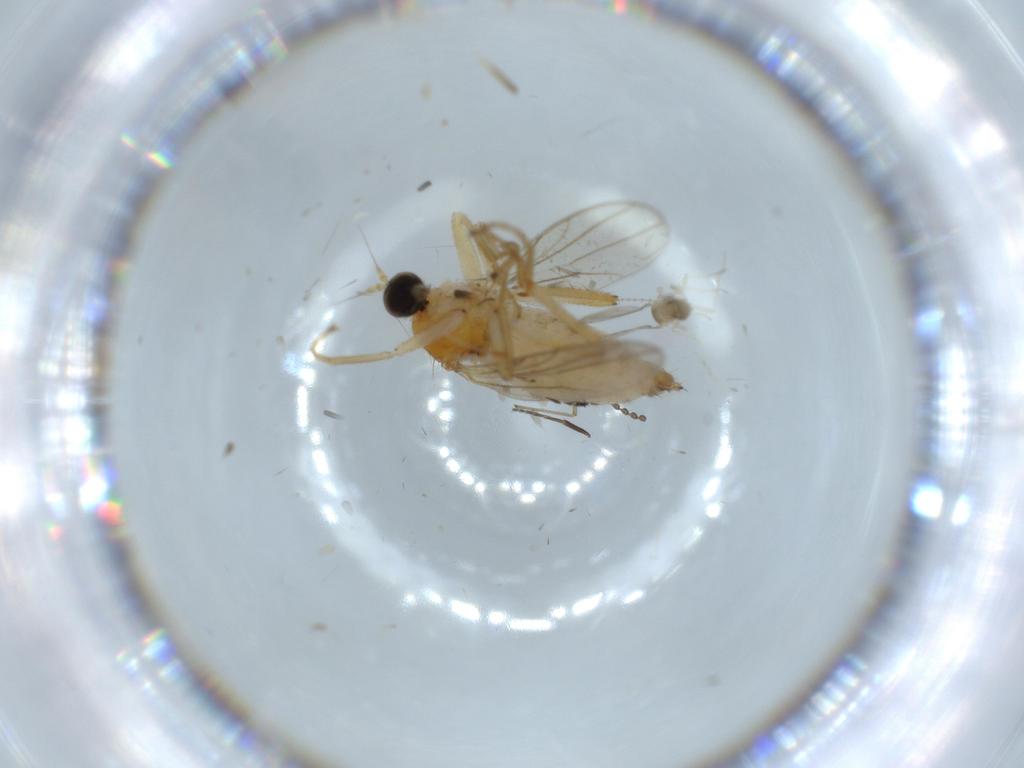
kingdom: Animalia
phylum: Arthropoda
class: Insecta
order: Diptera
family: Hybotidae
